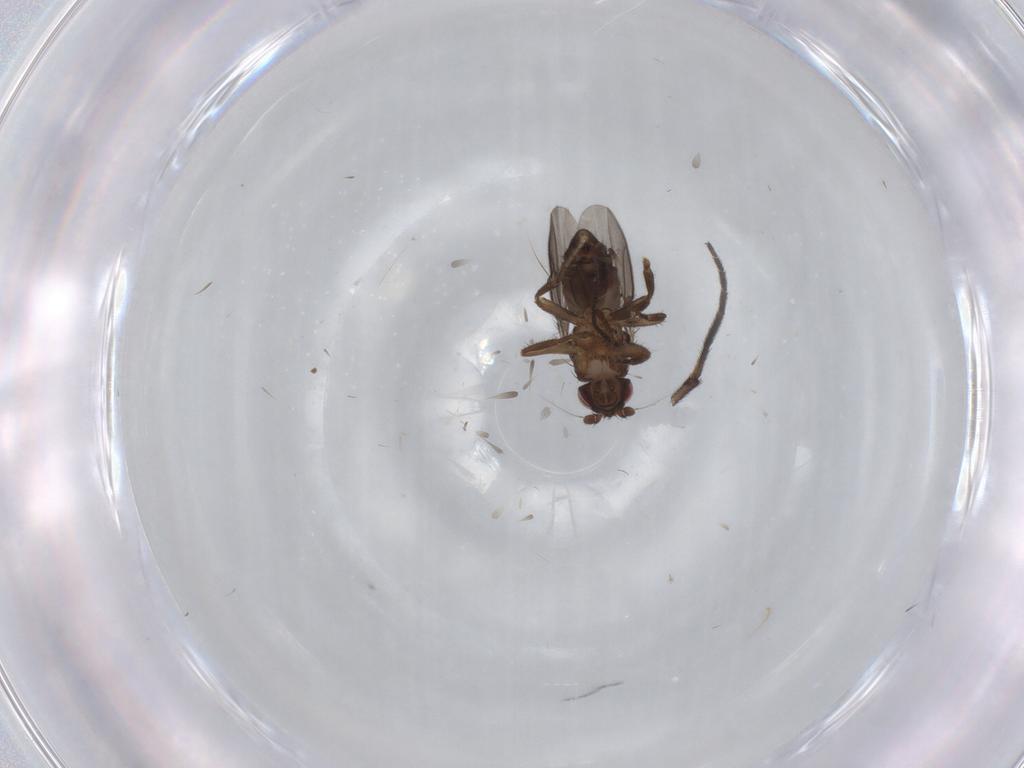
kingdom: Animalia
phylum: Arthropoda
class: Insecta
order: Diptera
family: Sphaeroceridae
